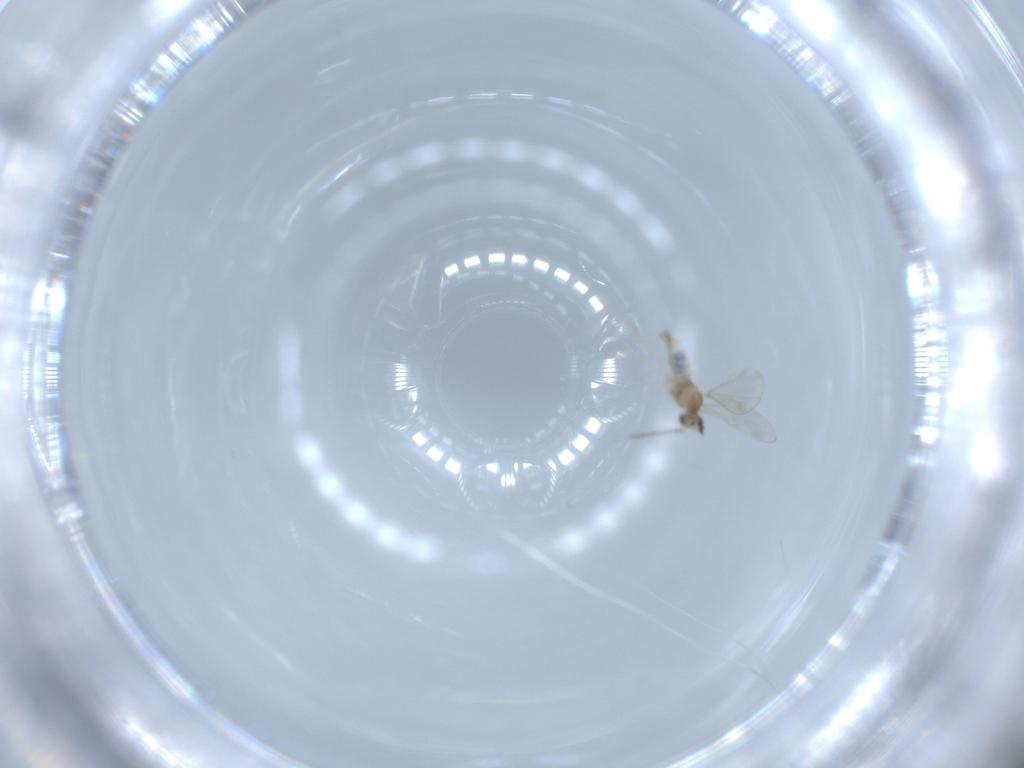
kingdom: Animalia
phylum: Arthropoda
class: Insecta
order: Diptera
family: Cecidomyiidae
